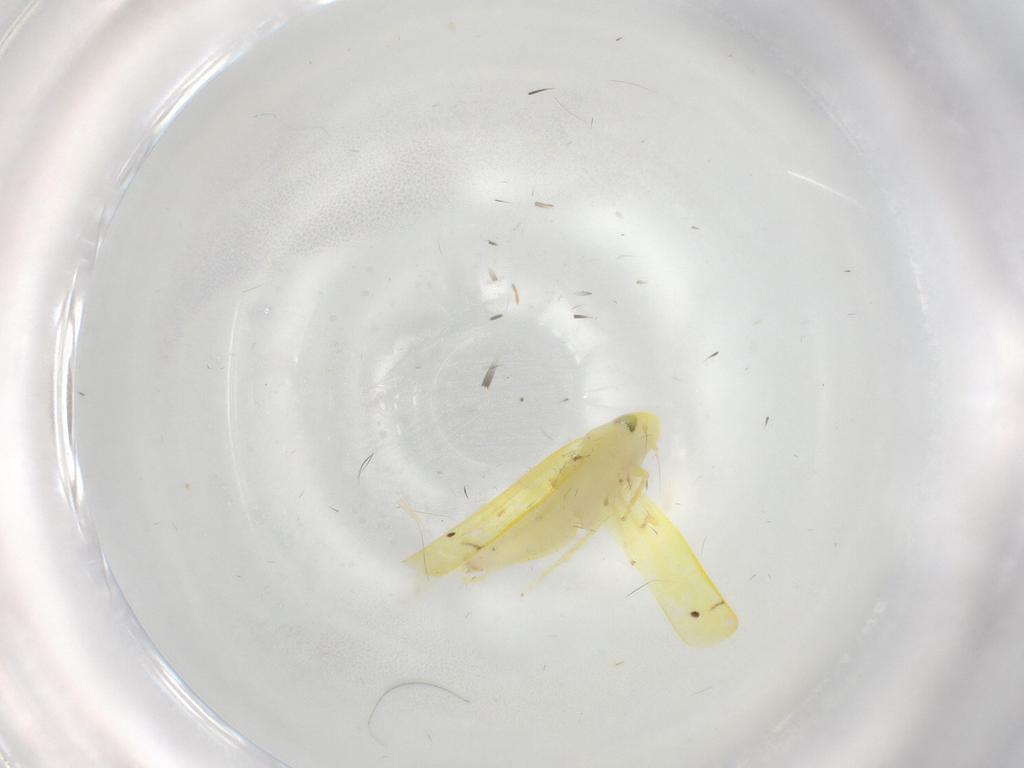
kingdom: Animalia
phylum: Arthropoda
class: Insecta
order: Hemiptera
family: Cicadellidae
